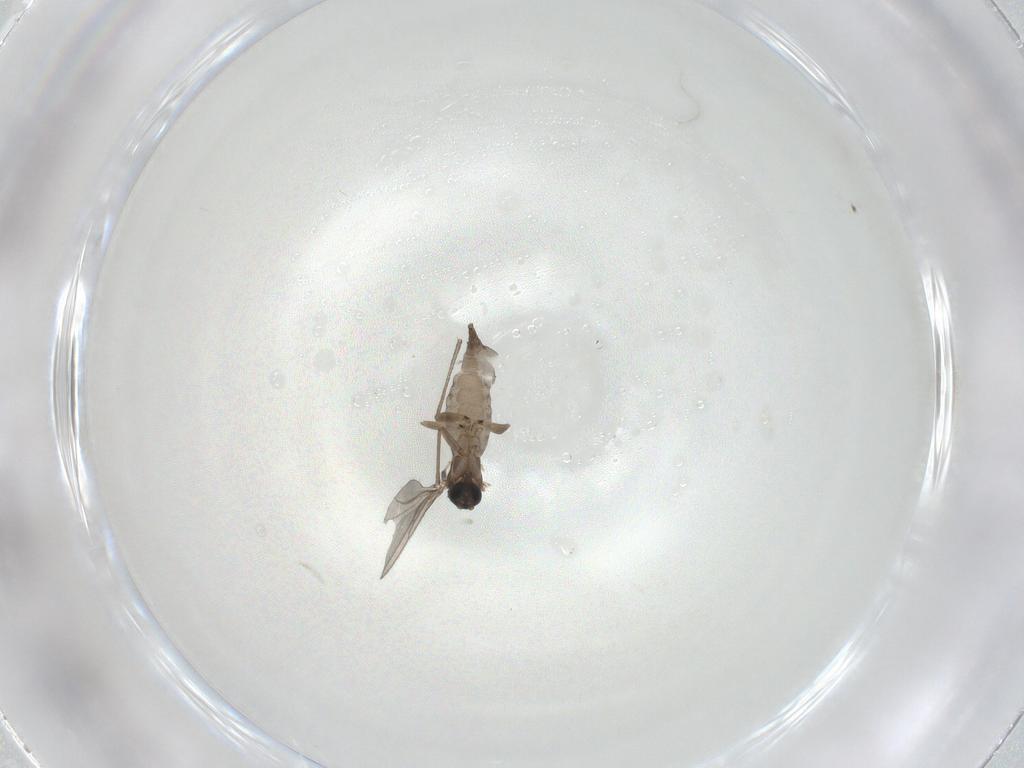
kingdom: Animalia
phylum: Arthropoda
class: Insecta
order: Diptera
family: Sciaridae
